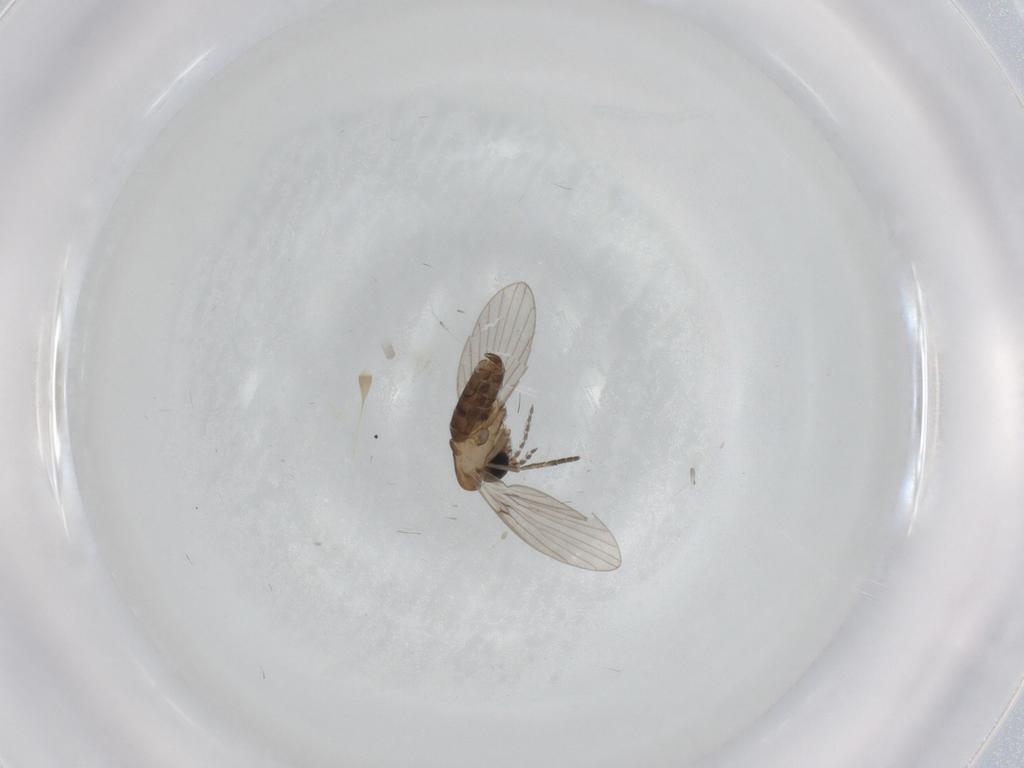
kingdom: Animalia
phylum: Arthropoda
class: Insecta
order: Diptera
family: Psychodidae
